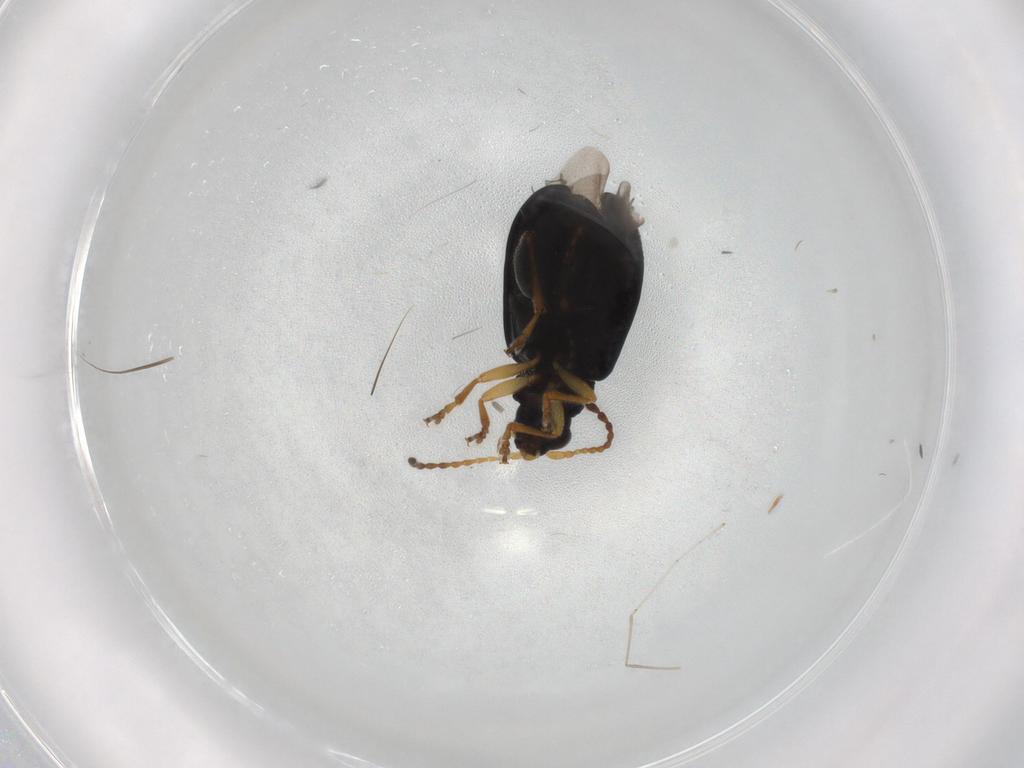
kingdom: Animalia
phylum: Arthropoda
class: Insecta
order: Coleoptera
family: Chrysomelidae
